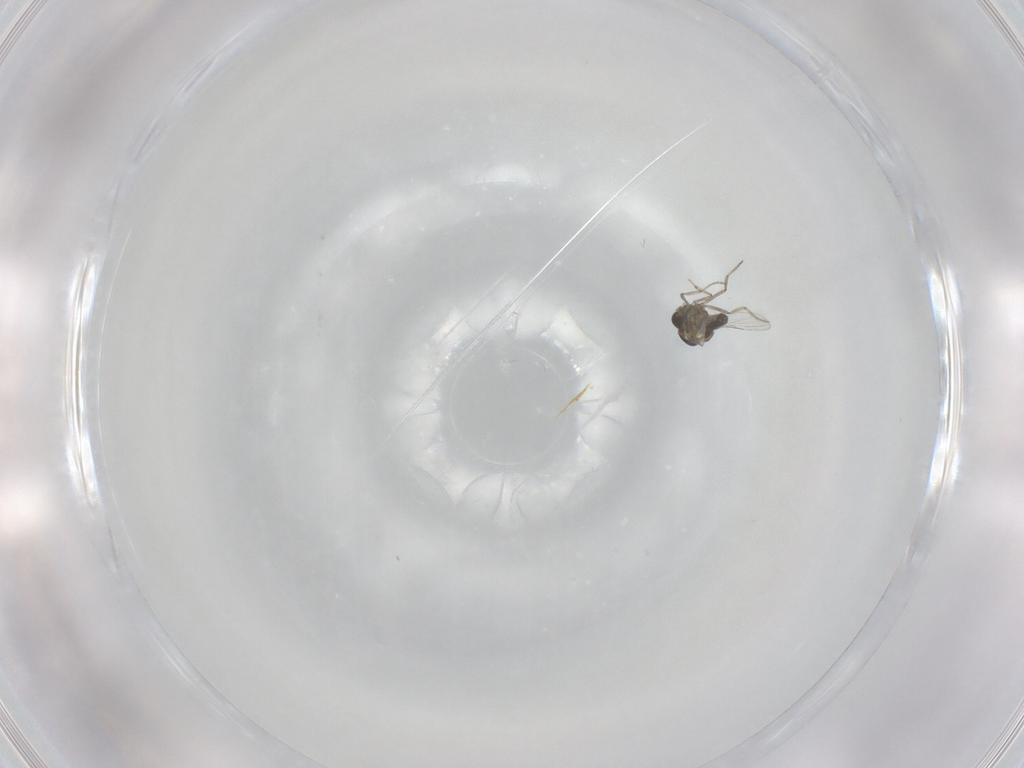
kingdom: Animalia
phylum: Arthropoda
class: Insecta
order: Diptera
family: Ceratopogonidae
